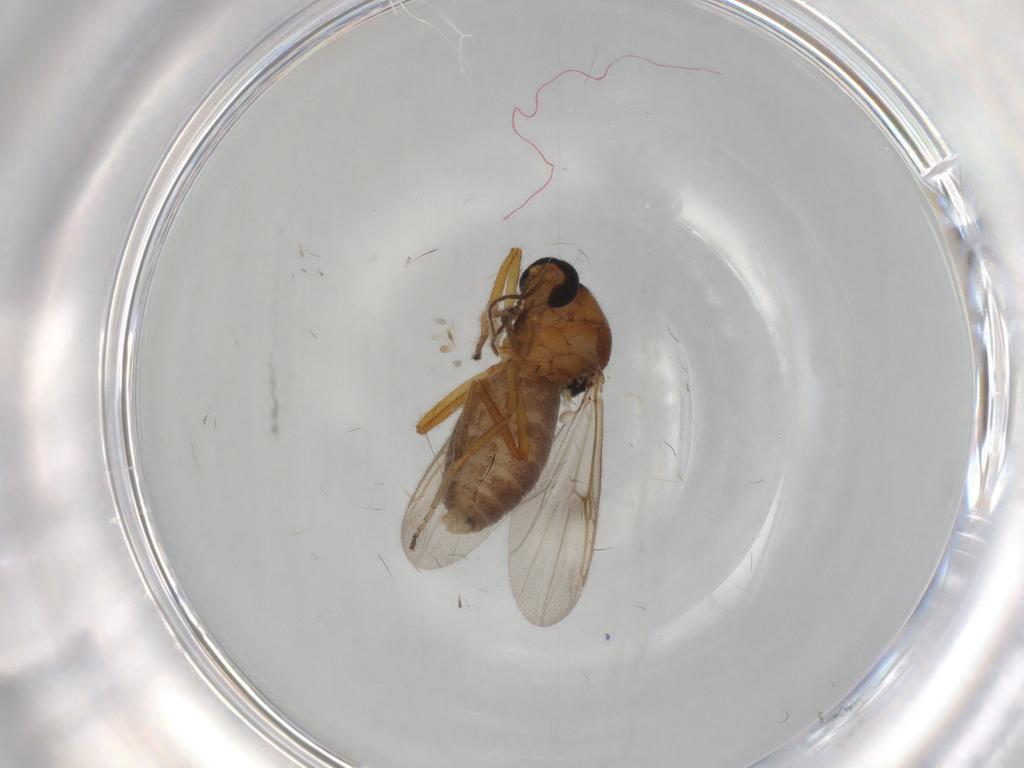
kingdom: Animalia
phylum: Arthropoda
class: Insecta
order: Diptera
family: Ceratopogonidae
